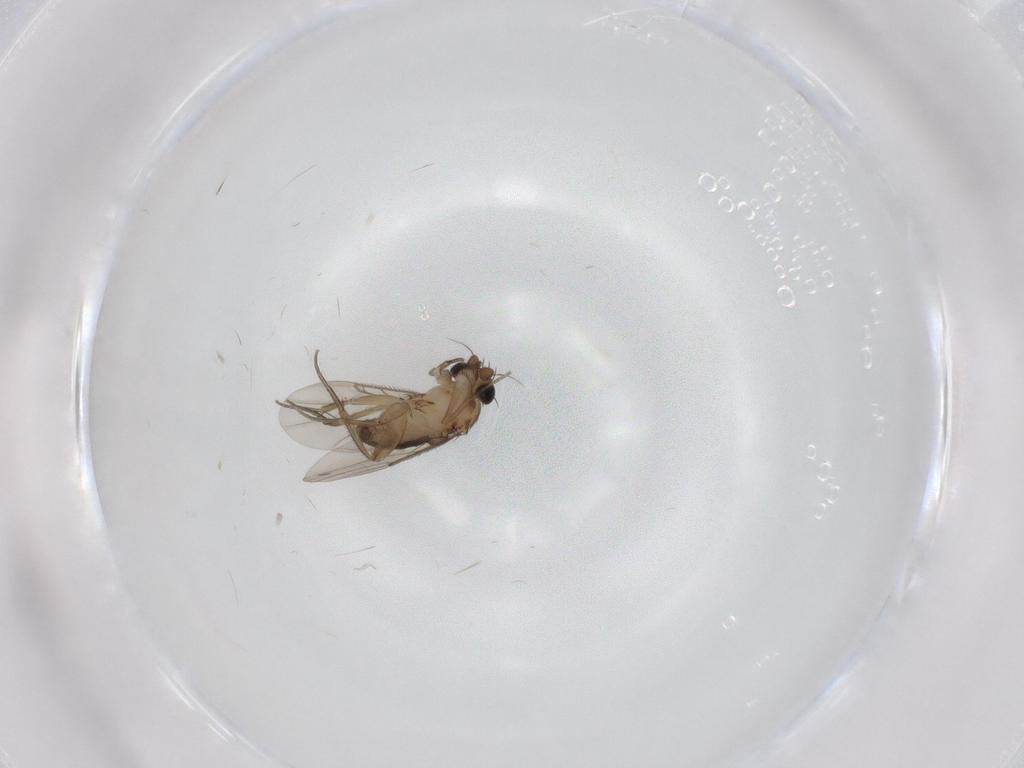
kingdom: Animalia
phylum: Arthropoda
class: Insecta
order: Diptera
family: Phoridae
